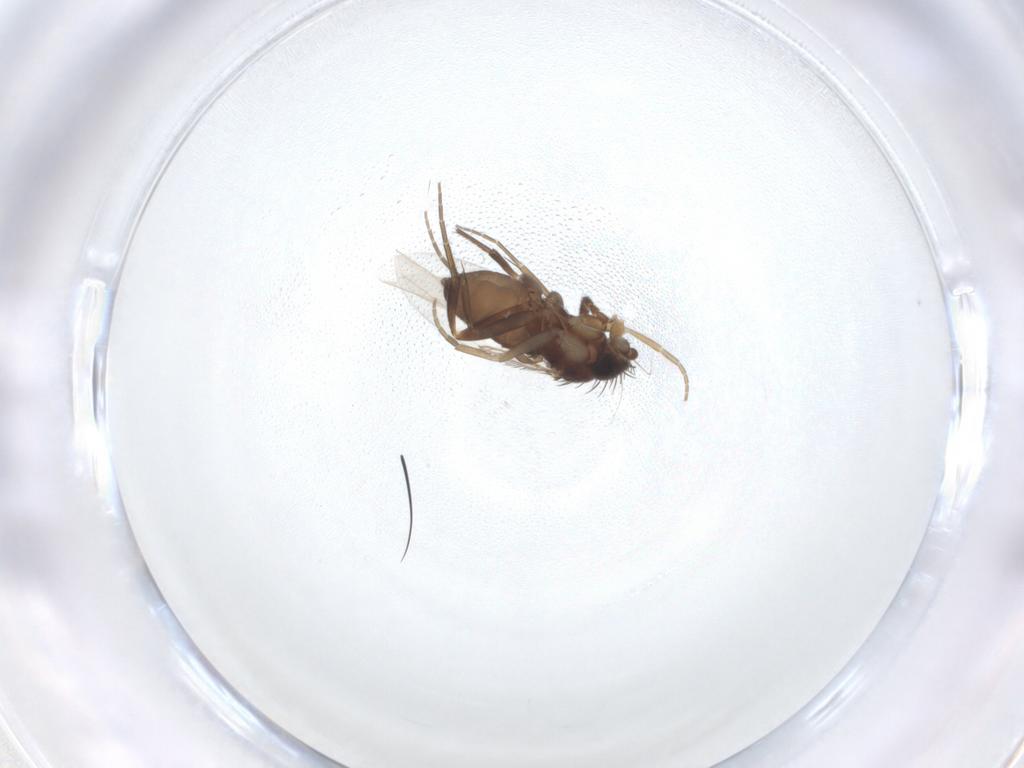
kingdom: Animalia
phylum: Arthropoda
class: Insecta
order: Diptera
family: Phoridae
